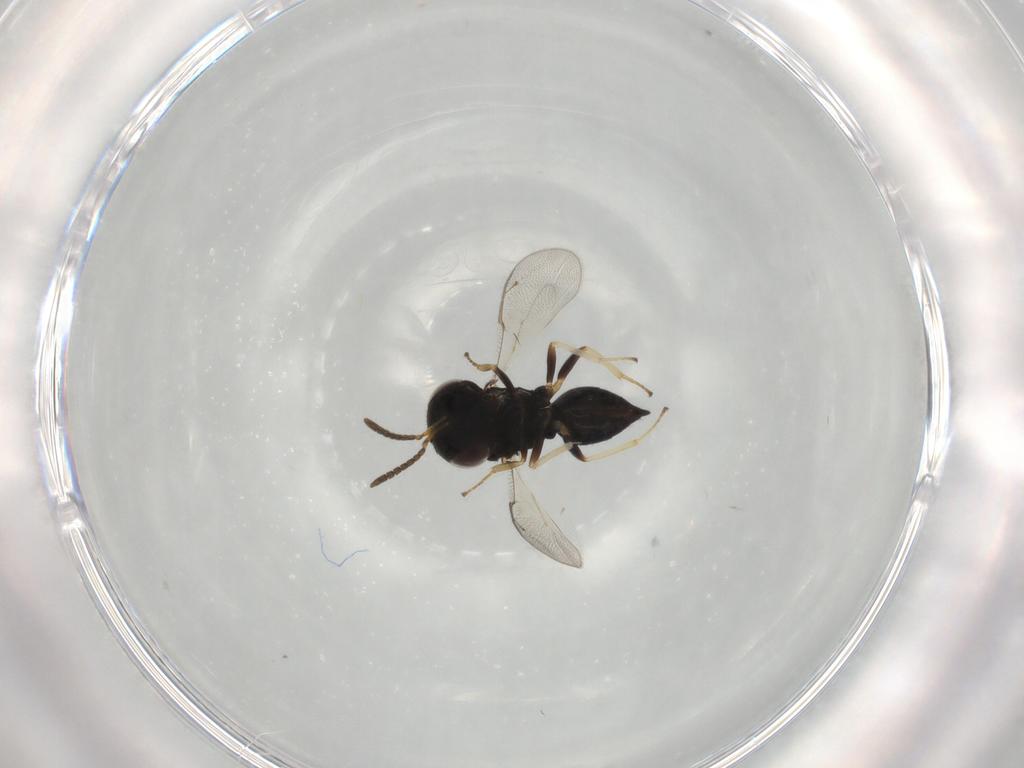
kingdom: Animalia
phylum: Arthropoda
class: Insecta
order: Hymenoptera
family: Pteromalidae
